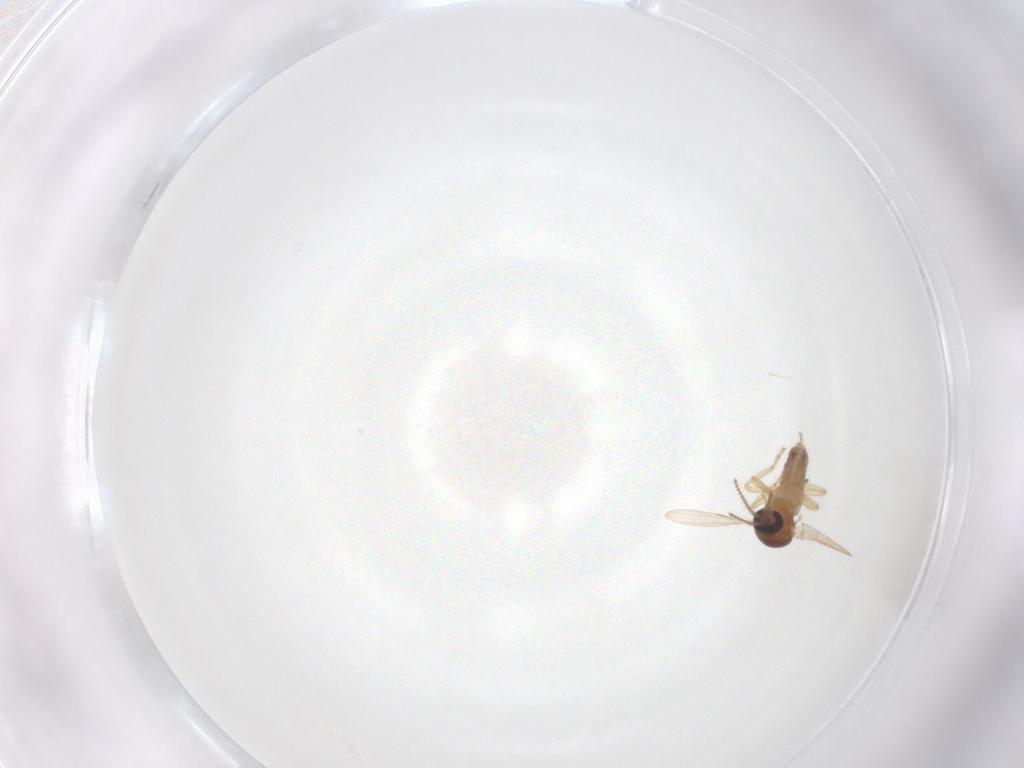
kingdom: Animalia
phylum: Arthropoda
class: Insecta
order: Diptera
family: Ceratopogonidae
